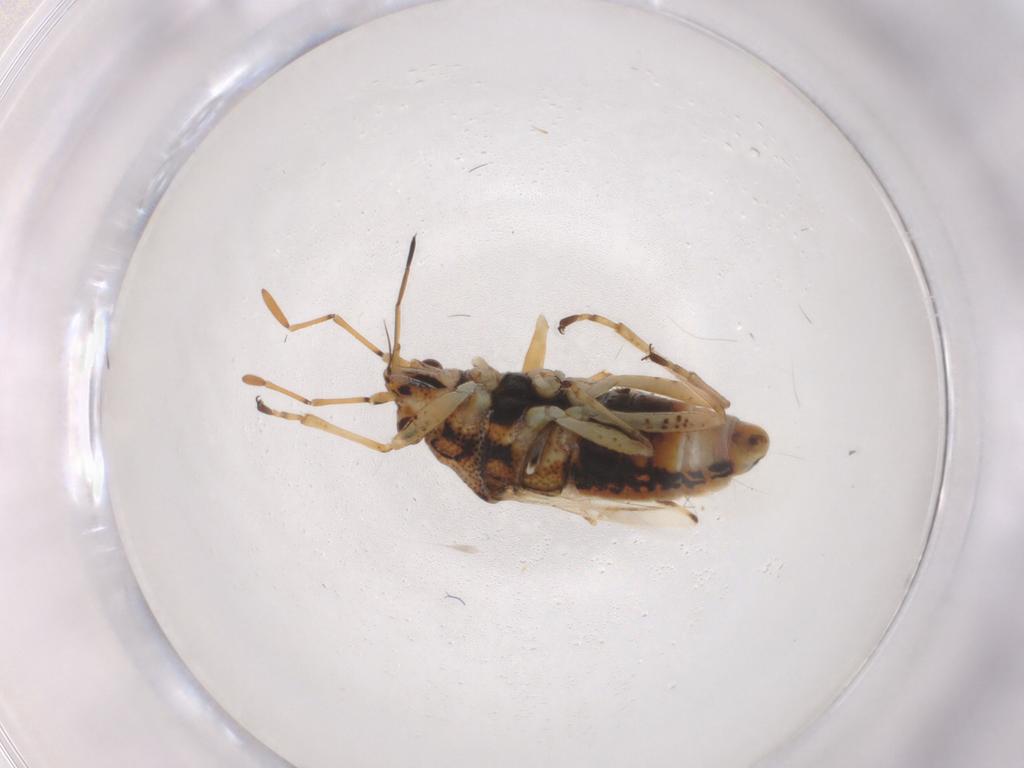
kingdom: Animalia
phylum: Arthropoda
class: Insecta
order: Hemiptera
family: Lygaeidae
